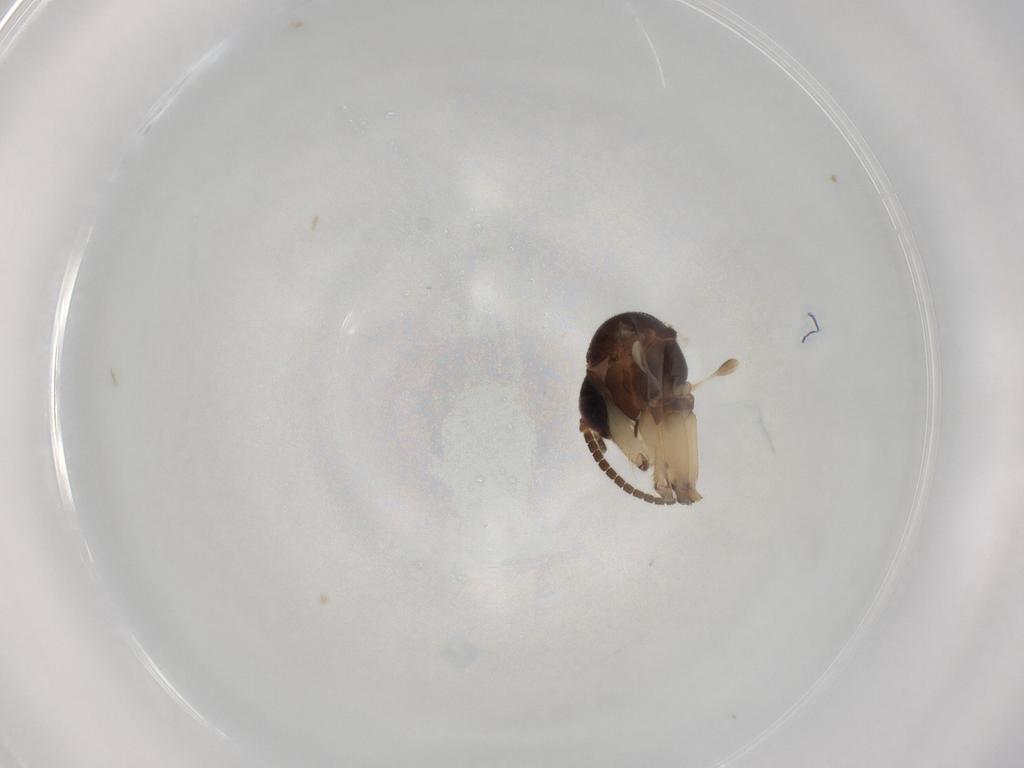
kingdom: Animalia
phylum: Arthropoda
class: Insecta
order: Diptera
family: Mycetophilidae
